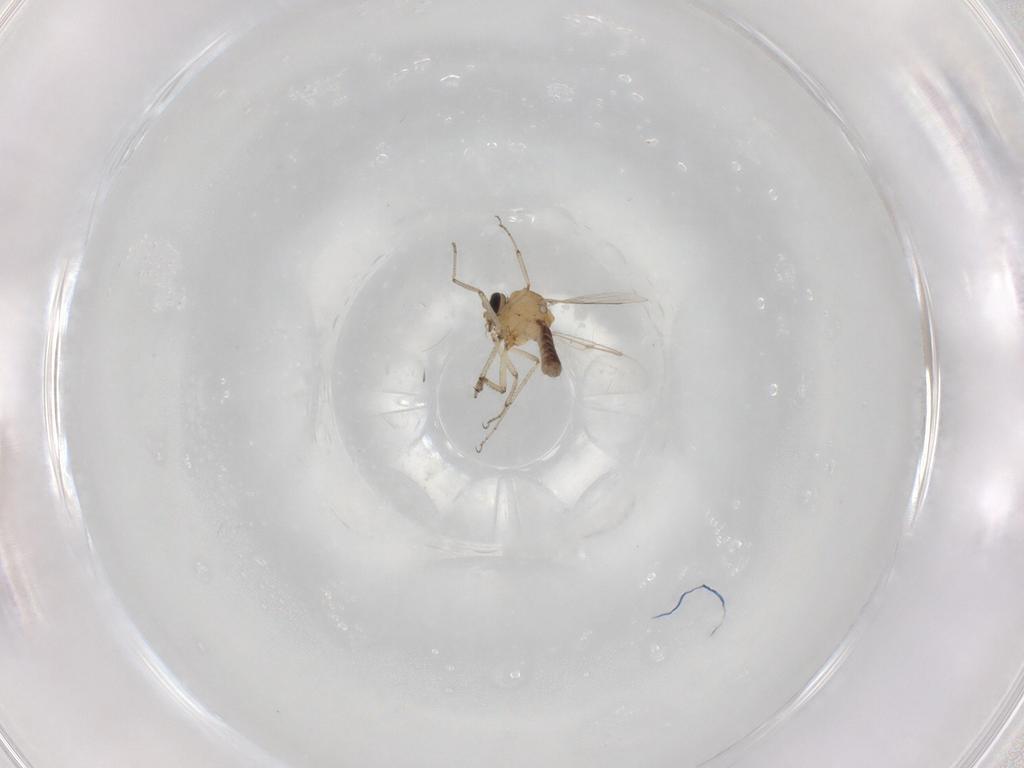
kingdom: Animalia
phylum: Arthropoda
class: Insecta
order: Diptera
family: Ceratopogonidae
